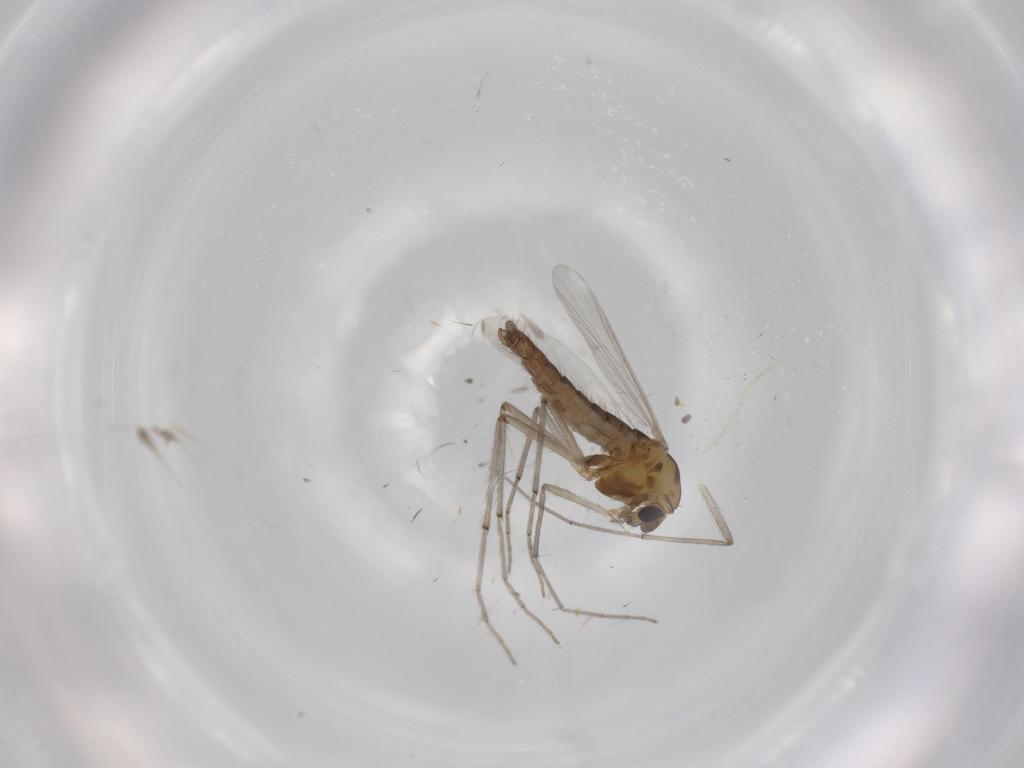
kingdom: Animalia
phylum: Arthropoda
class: Insecta
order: Diptera
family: Chironomidae
